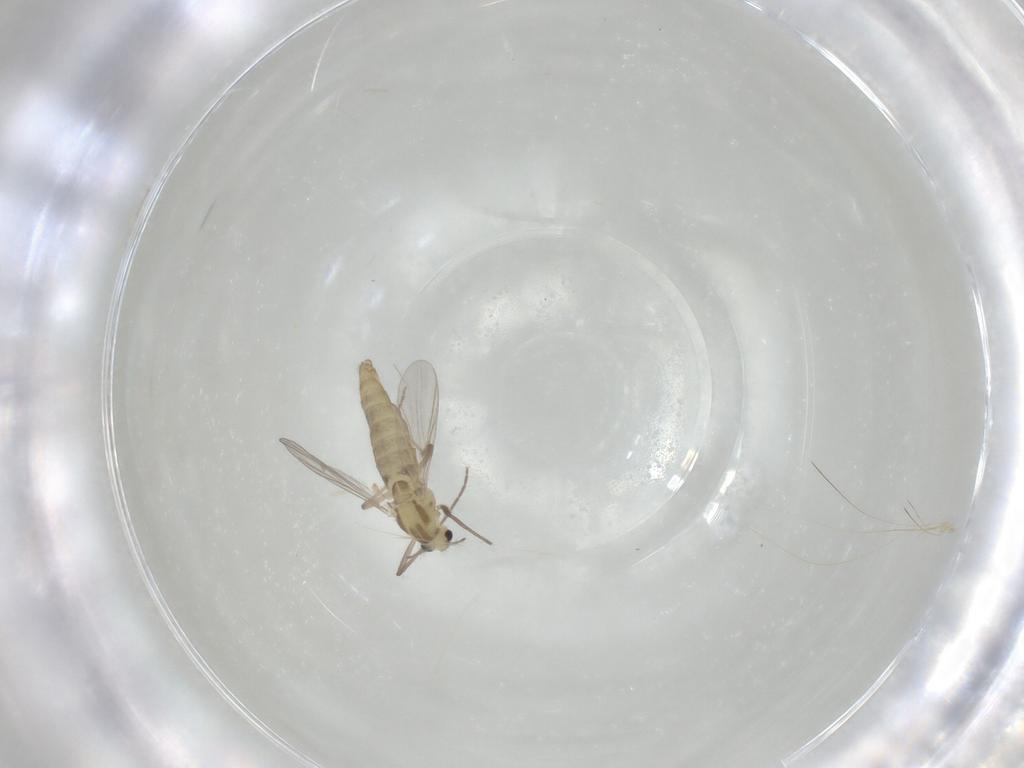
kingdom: Animalia
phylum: Arthropoda
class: Insecta
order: Diptera
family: Chironomidae
